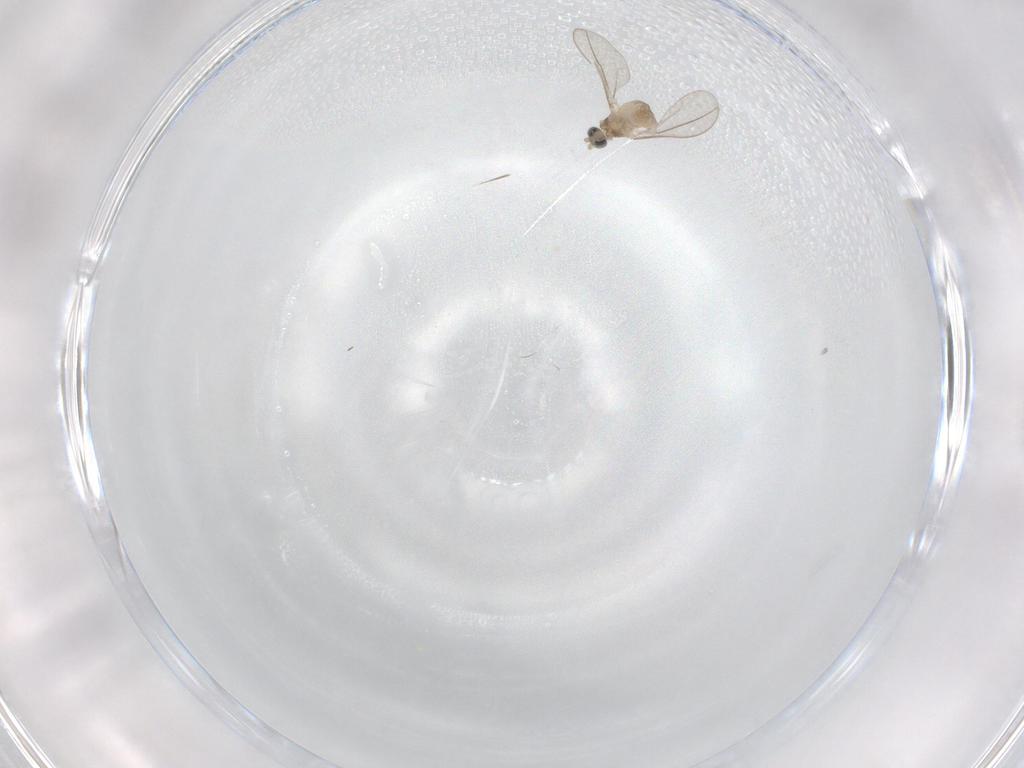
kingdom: Animalia
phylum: Arthropoda
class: Insecta
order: Diptera
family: Cecidomyiidae
